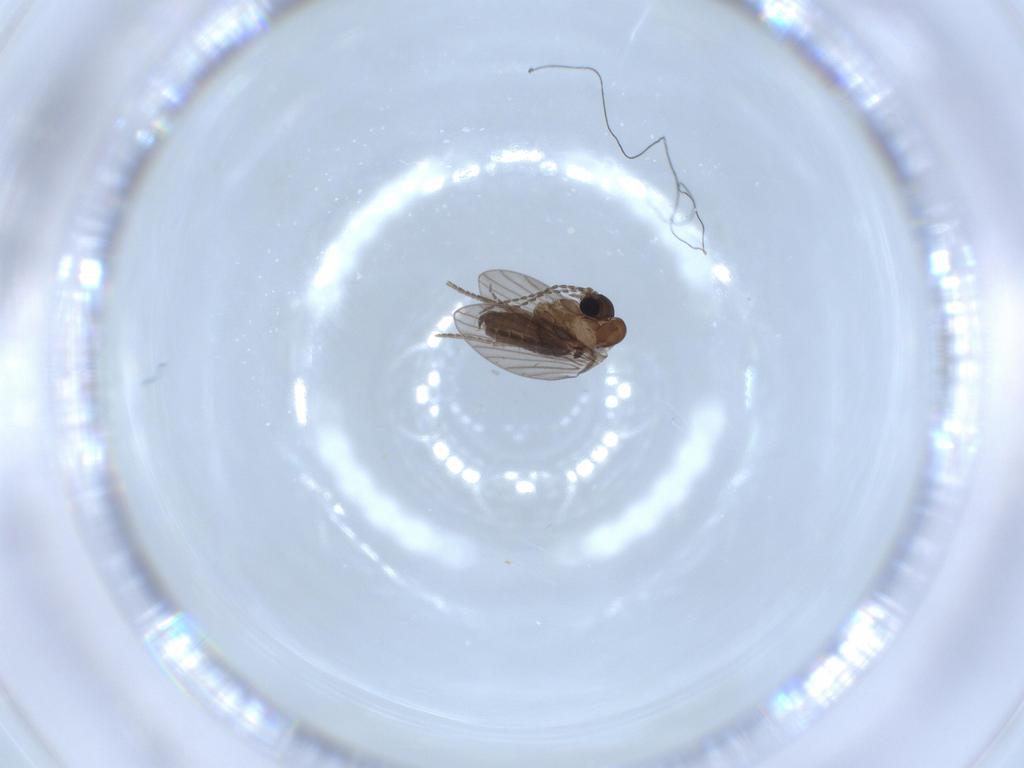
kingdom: Animalia
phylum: Arthropoda
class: Insecta
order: Diptera
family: Psychodidae
